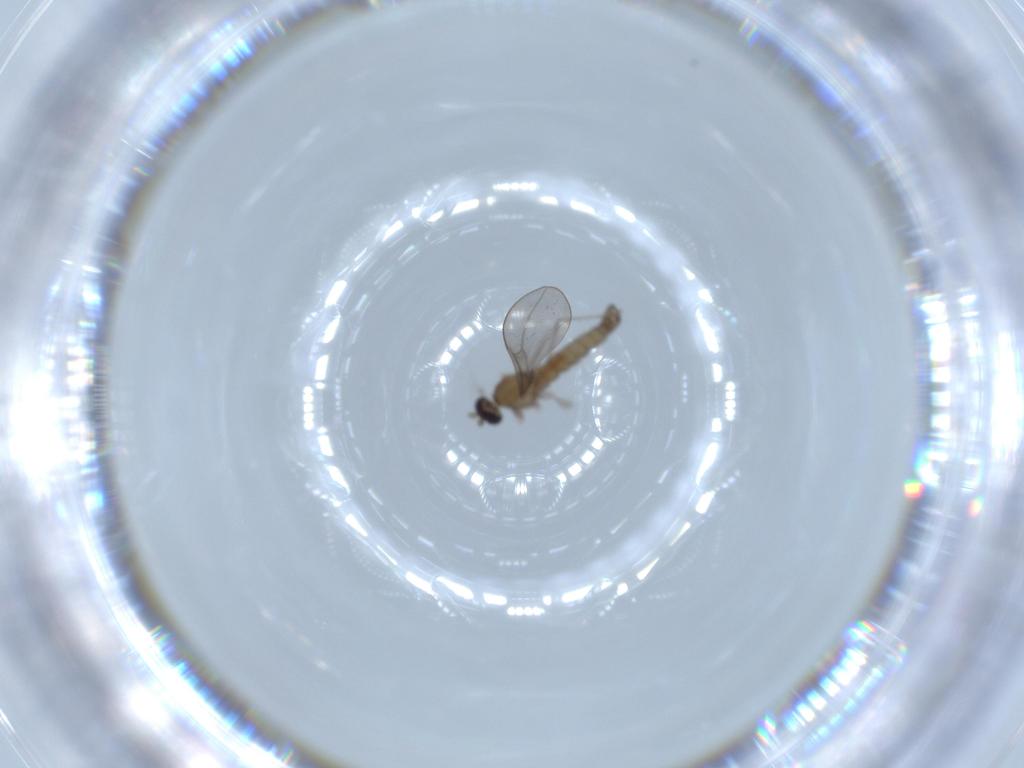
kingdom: Animalia
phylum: Arthropoda
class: Insecta
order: Diptera
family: Cecidomyiidae
